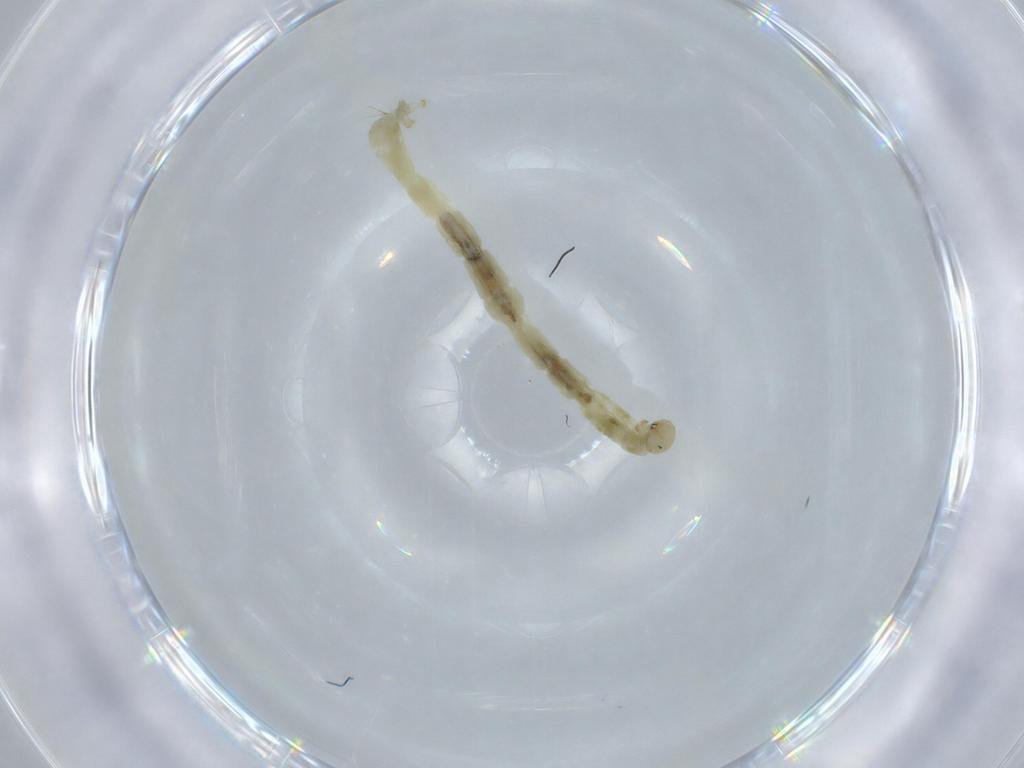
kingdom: Animalia
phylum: Arthropoda
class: Insecta
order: Diptera
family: Chironomidae
